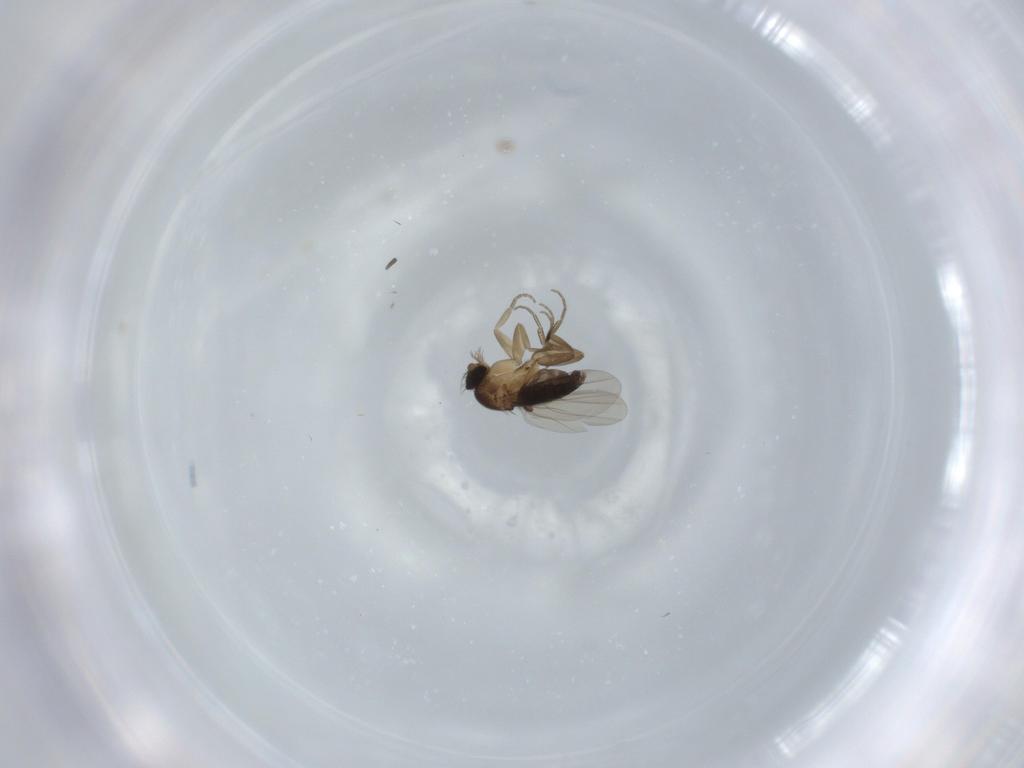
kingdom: Animalia
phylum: Arthropoda
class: Insecta
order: Diptera
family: Phoridae
